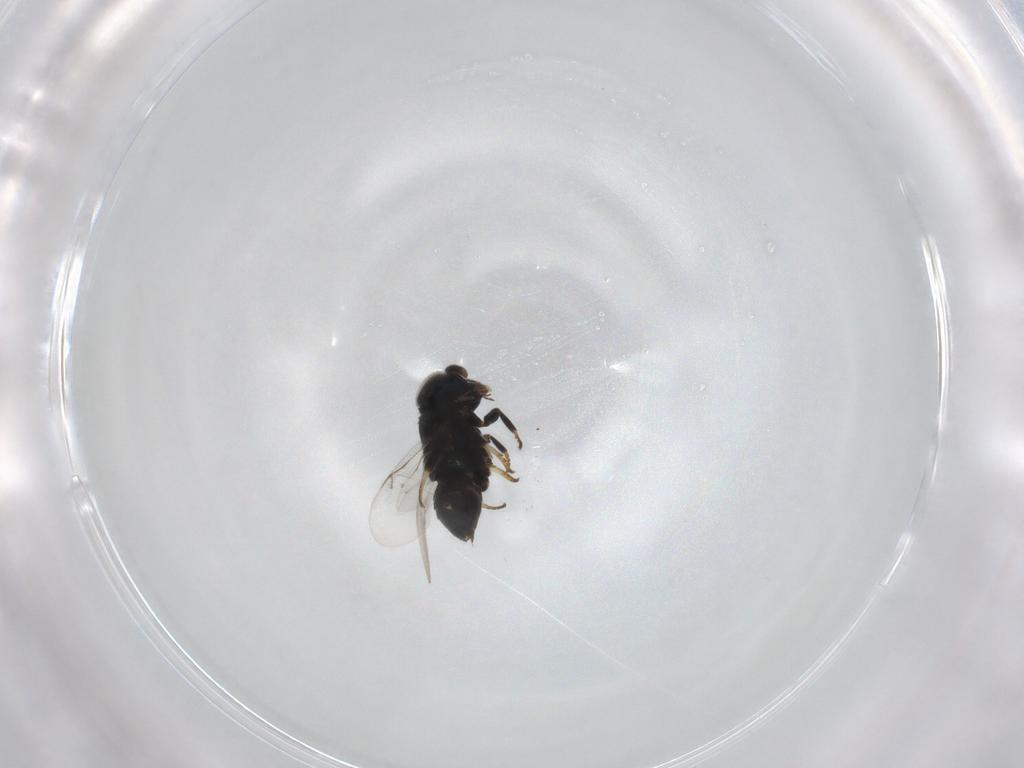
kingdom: Animalia
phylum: Arthropoda
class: Insecta
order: Hymenoptera
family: Encyrtidae
